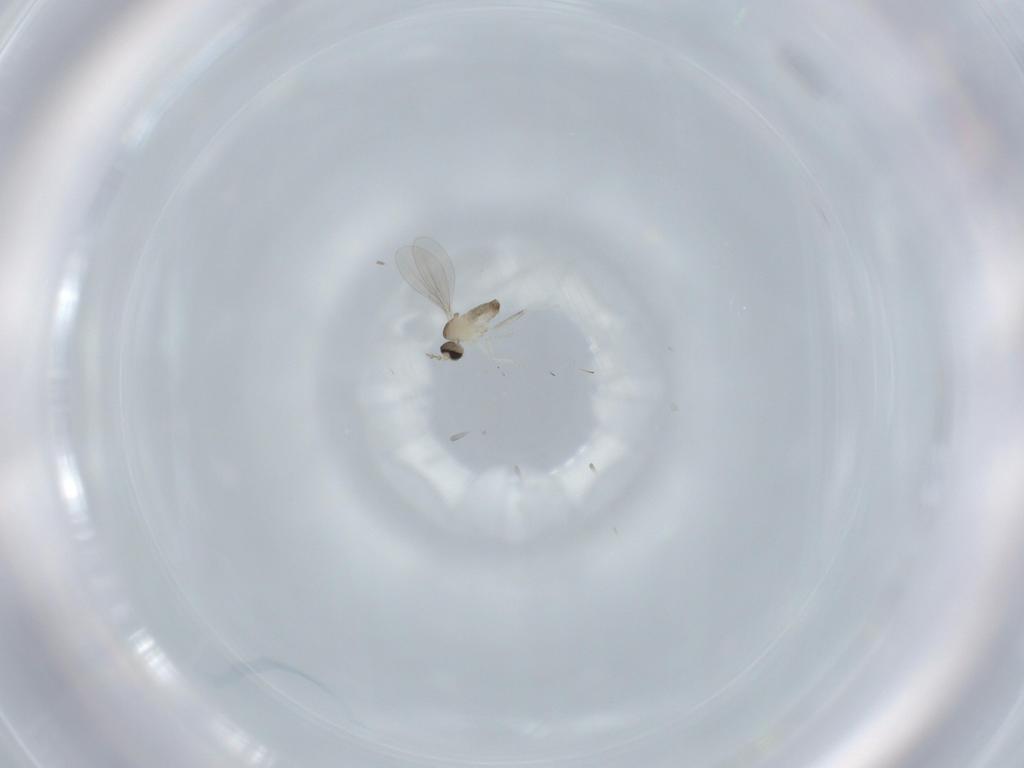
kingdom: Animalia
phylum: Arthropoda
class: Insecta
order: Diptera
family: Cecidomyiidae
